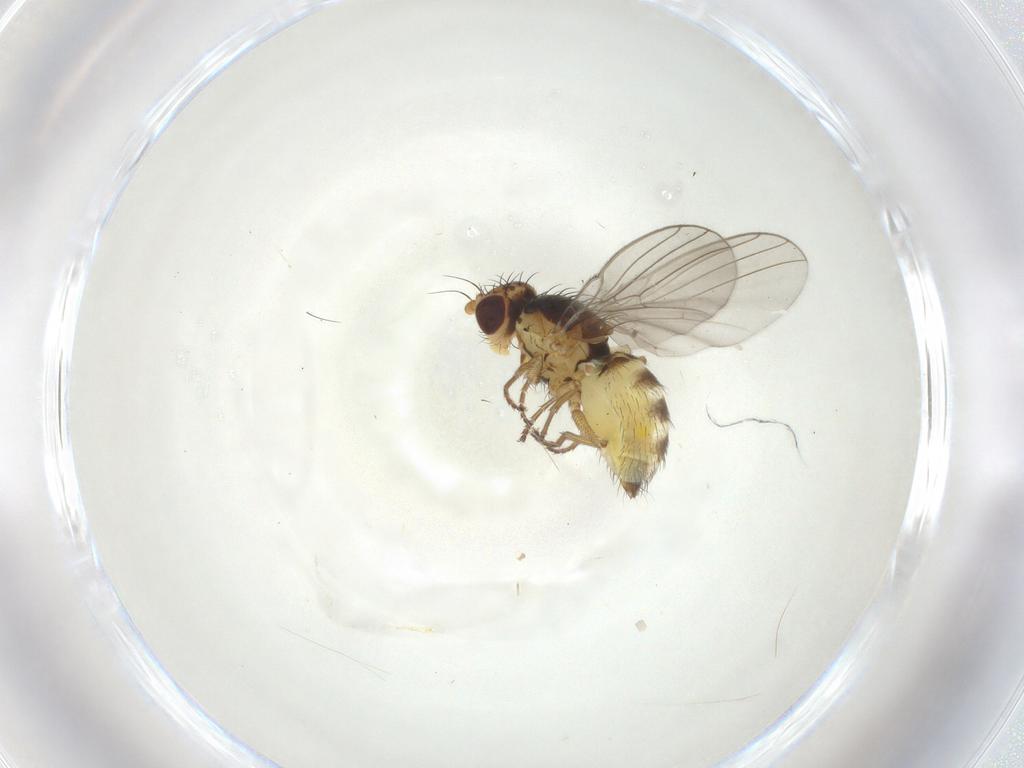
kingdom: Animalia
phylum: Arthropoda
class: Insecta
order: Diptera
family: Agromyzidae
